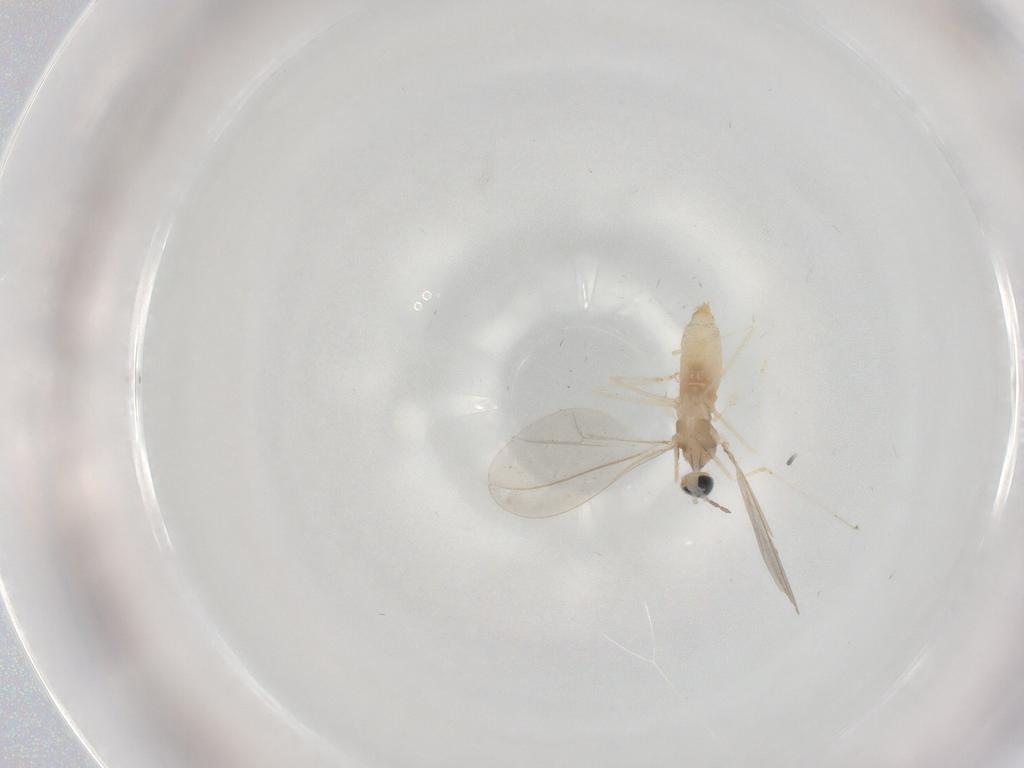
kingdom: Animalia
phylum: Arthropoda
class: Insecta
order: Diptera
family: Cecidomyiidae
